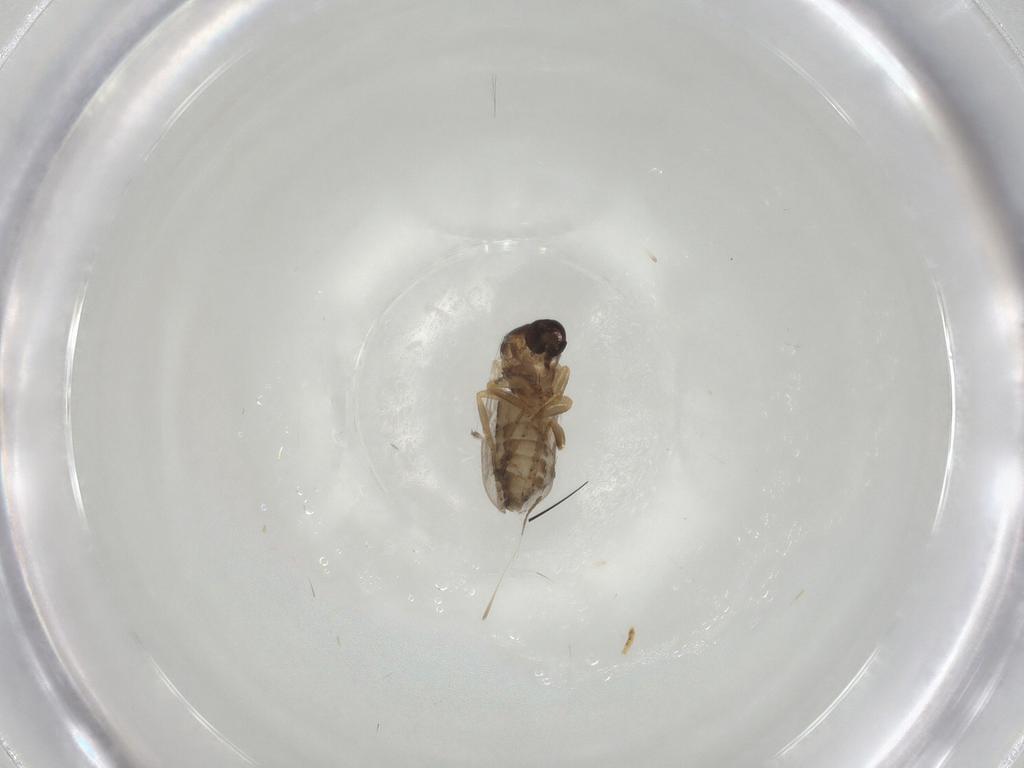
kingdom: Animalia
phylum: Arthropoda
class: Insecta
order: Diptera
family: Ceratopogonidae
